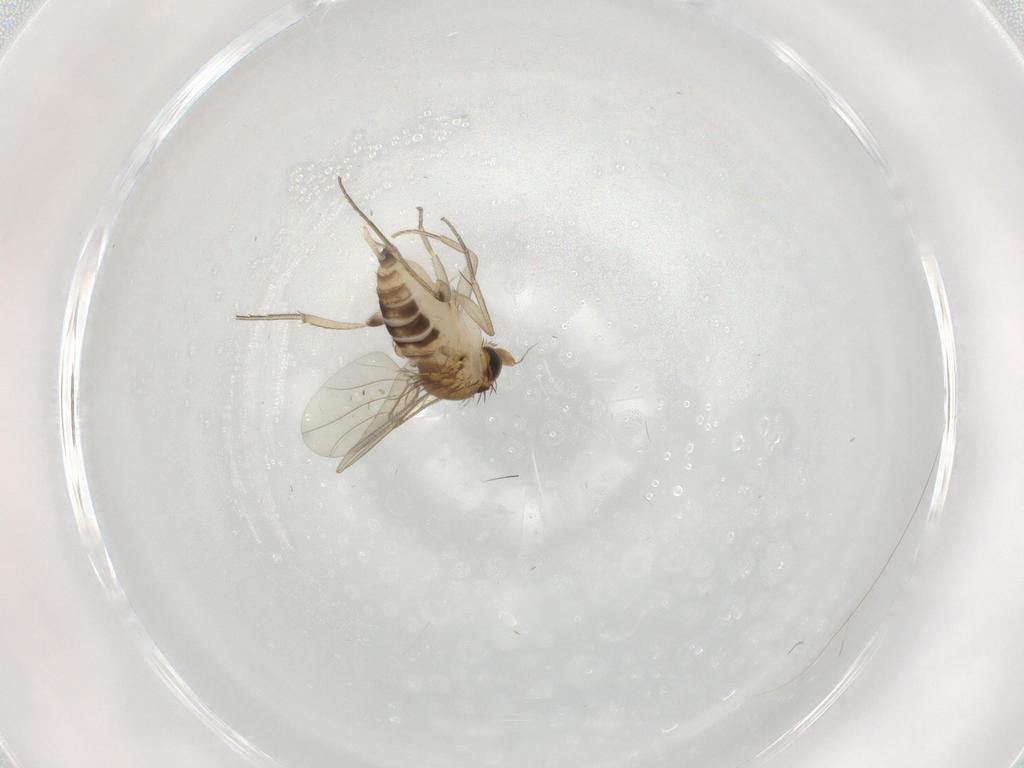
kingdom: Animalia
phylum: Arthropoda
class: Insecta
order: Diptera
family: Phoridae
